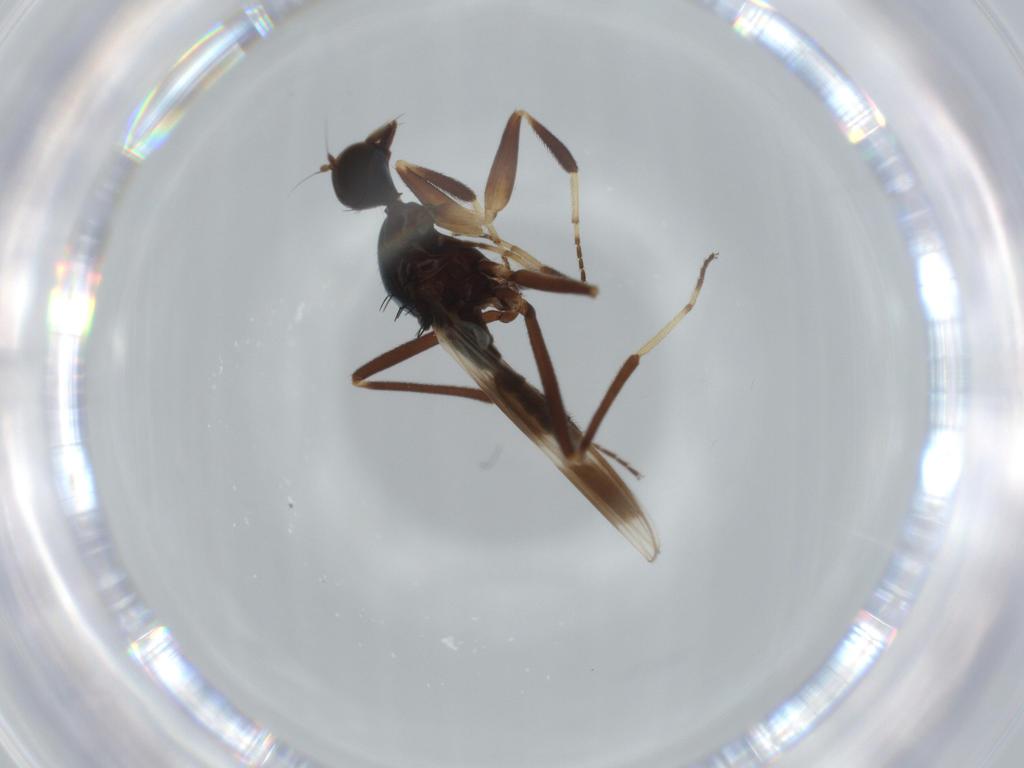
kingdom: Animalia
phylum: Arthropoda
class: Insecta
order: Diptera
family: Hybotidae
